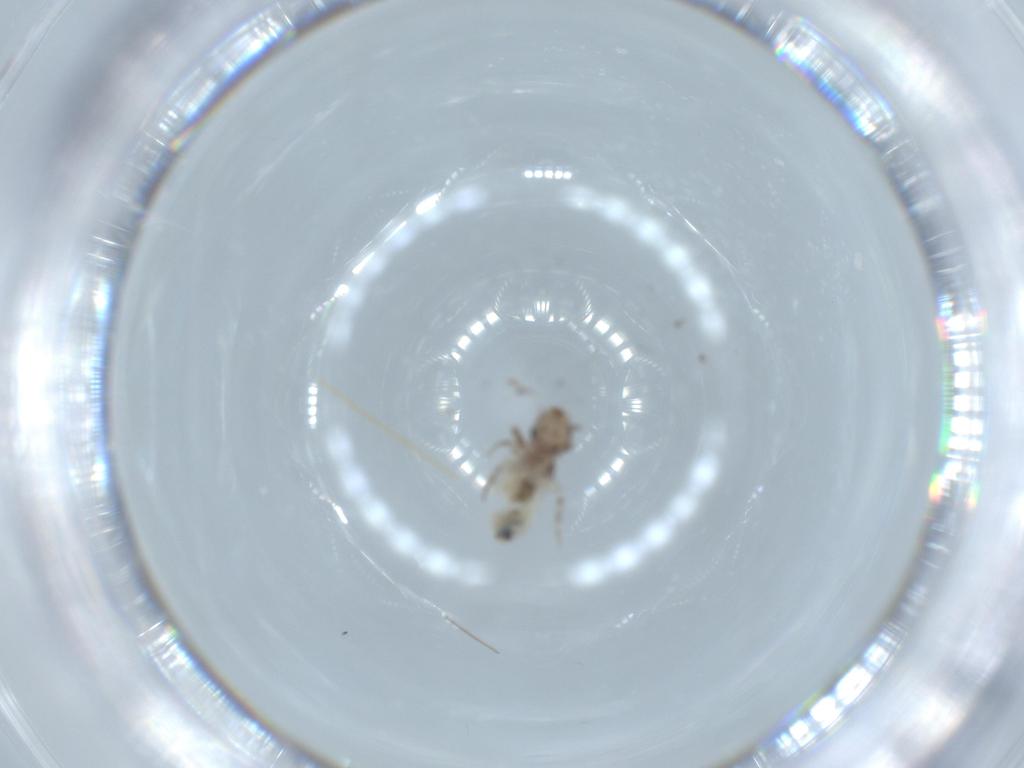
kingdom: Animalia
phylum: Arthropoda
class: Insecta
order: Psocodea
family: Lepidopsocidae
